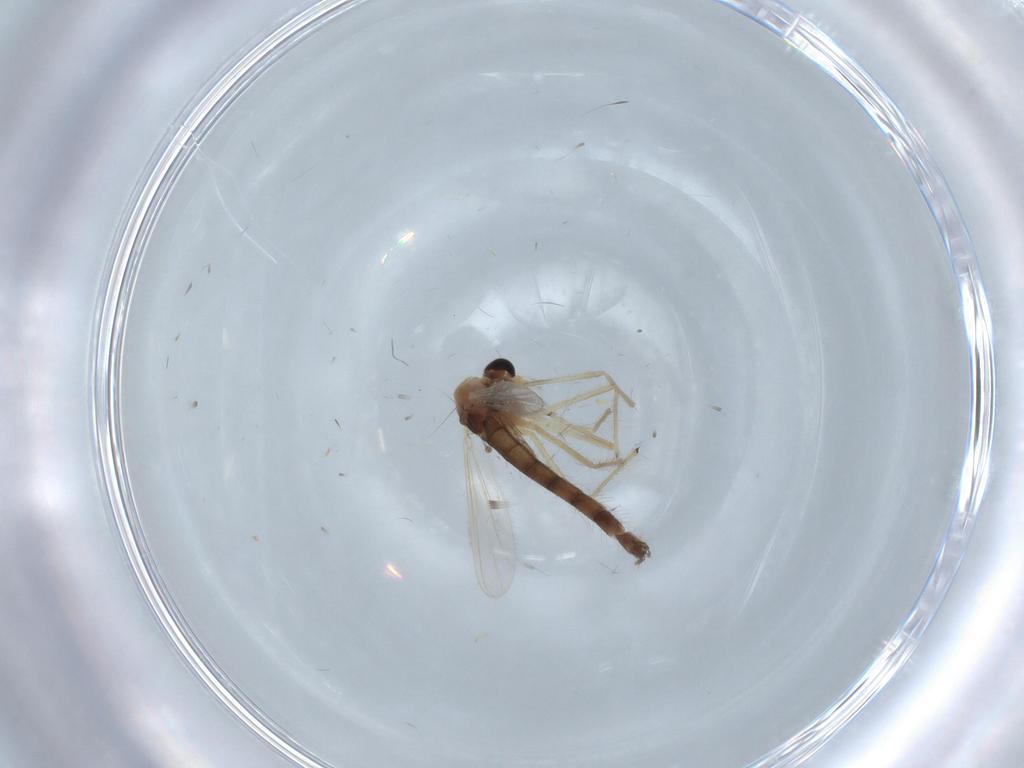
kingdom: Animalia
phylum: Arthropoda
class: Insecta
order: Diptera
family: Chironomidae
